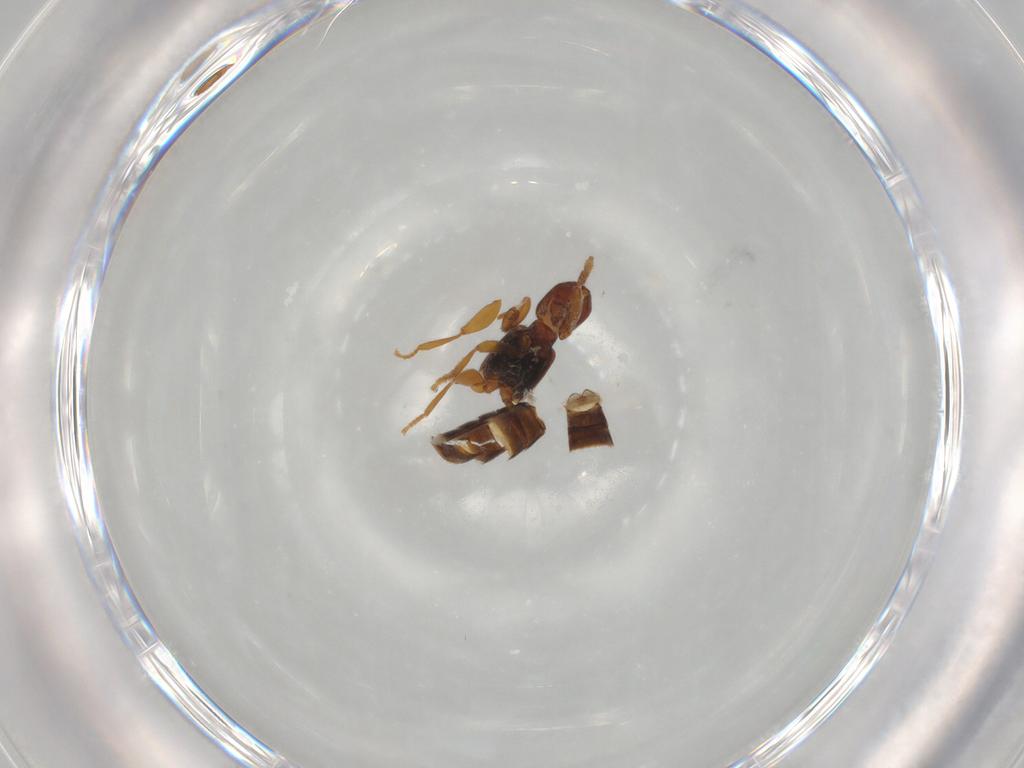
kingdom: Animalia
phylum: Arthropoda
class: Insecta
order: Coleoptera
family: Staphylinidae
